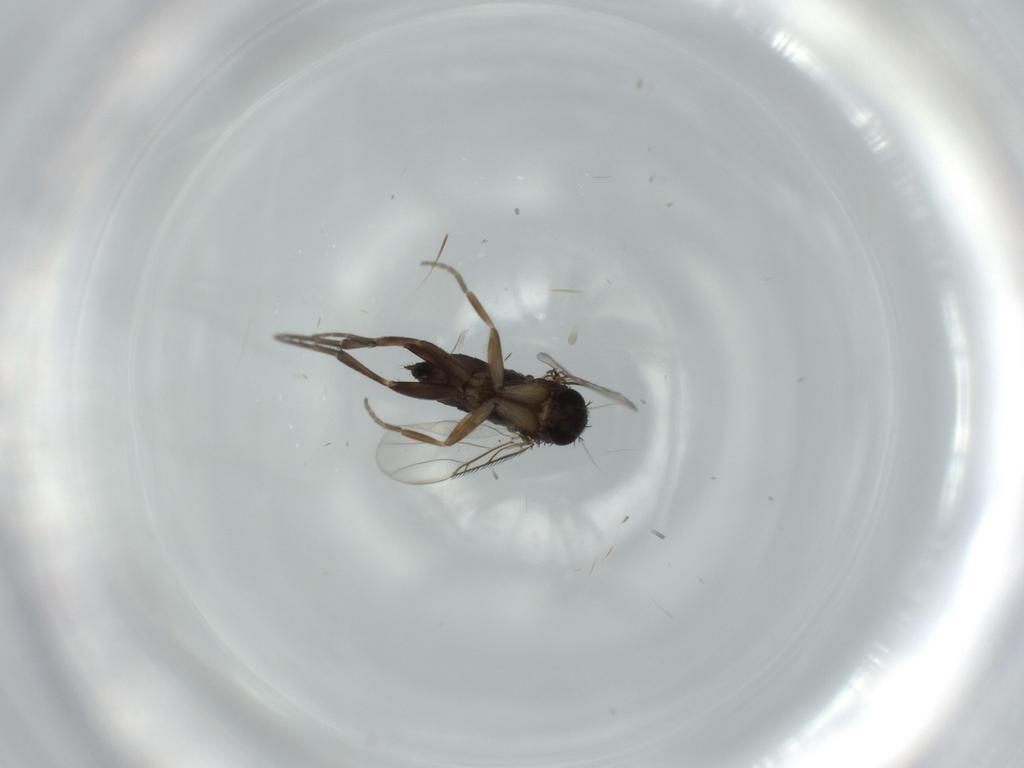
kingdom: Animalia
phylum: Arthropoda
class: Insecta
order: Diptera
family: Phoridae
